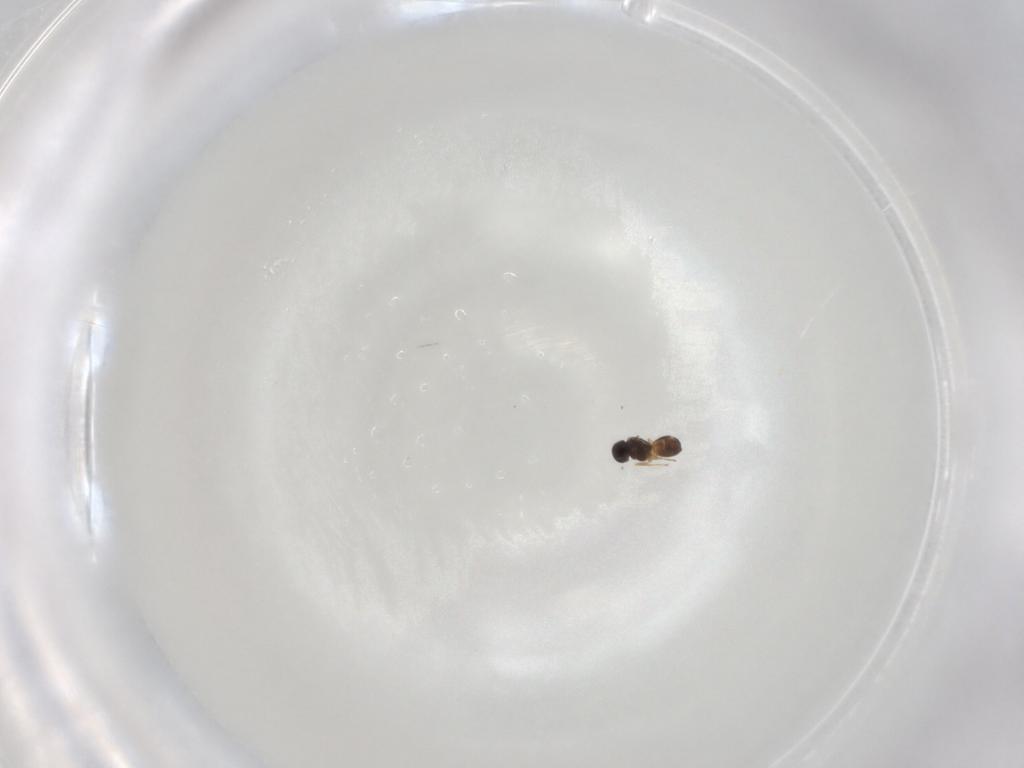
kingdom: Animalia
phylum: Arthropoda
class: Insecta
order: Hymenoptera
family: Scelionidae
